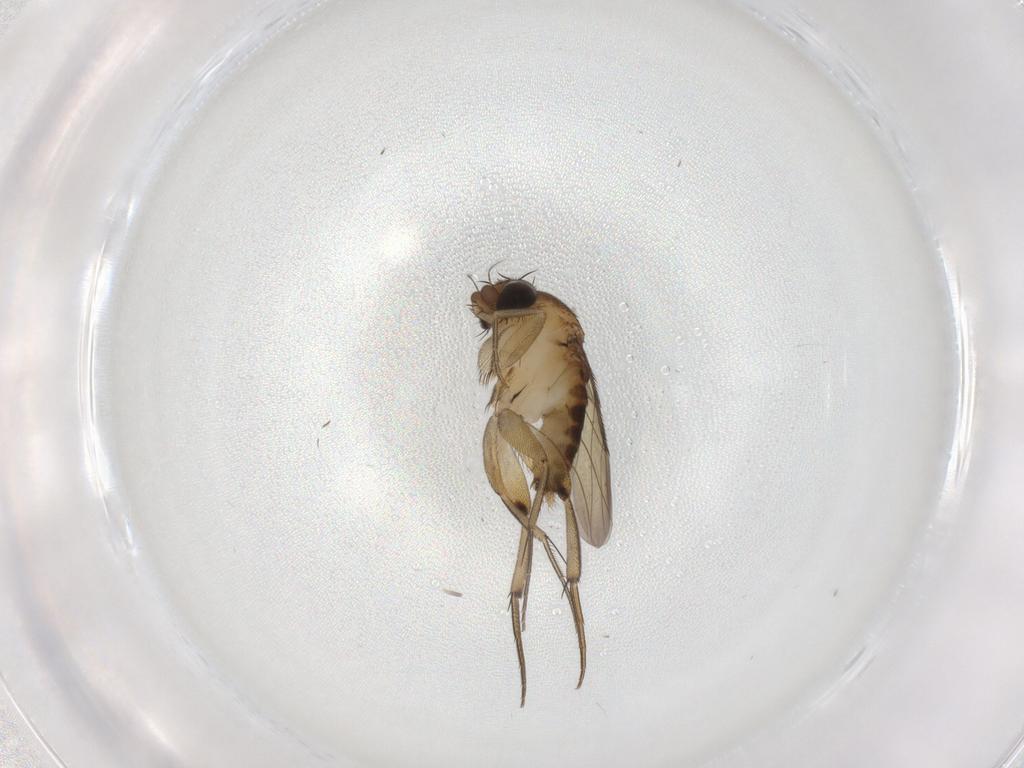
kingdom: Animalia
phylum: Arthropoda
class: Insecta
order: Diptera
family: Phoridae
